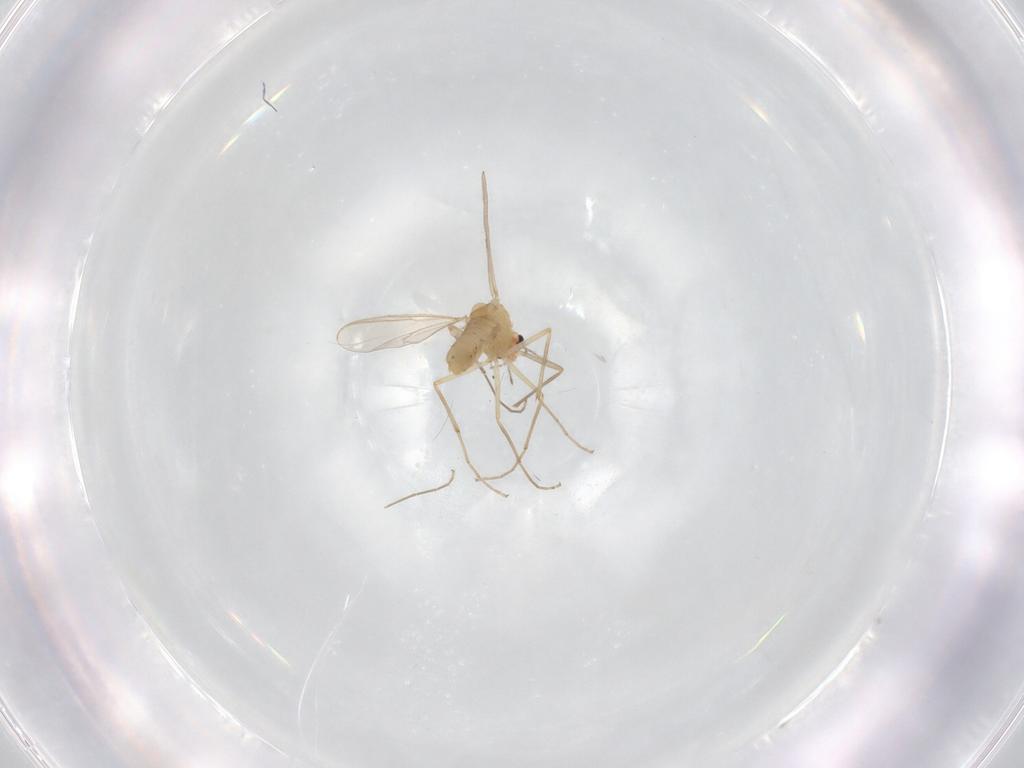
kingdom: Animalia
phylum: Arthropoda
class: Insecta
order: Diptera
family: Chironomidae
